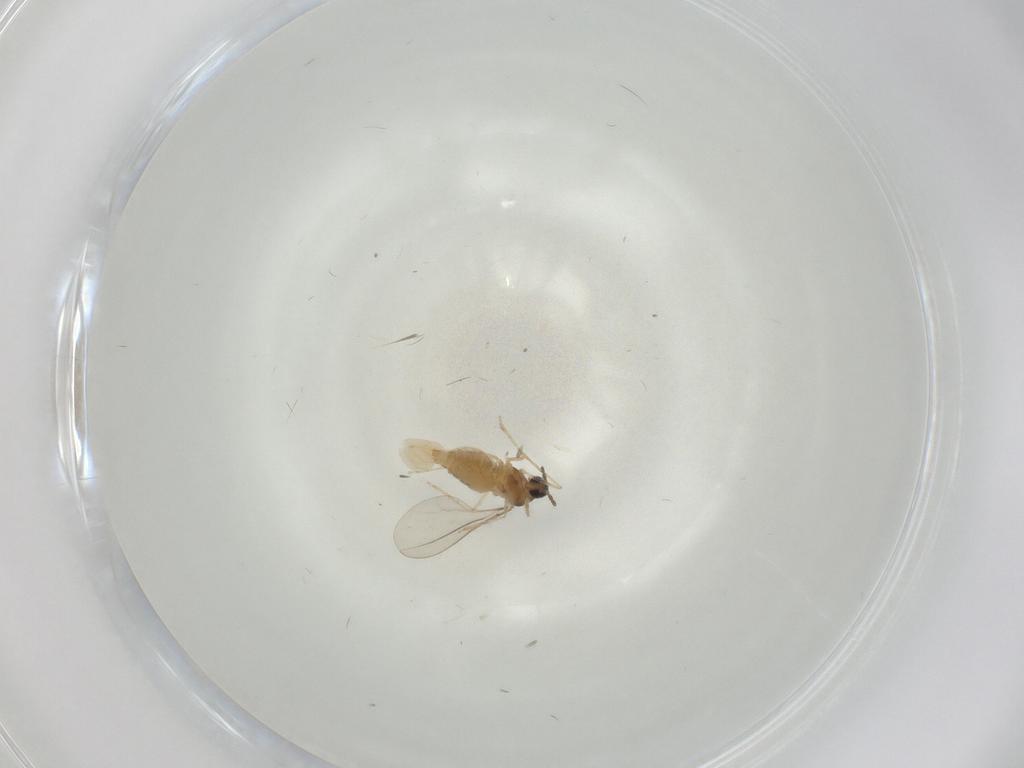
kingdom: Animalia
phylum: Arthropoda
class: Insecta
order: Diptera
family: Cecidomyiidae
